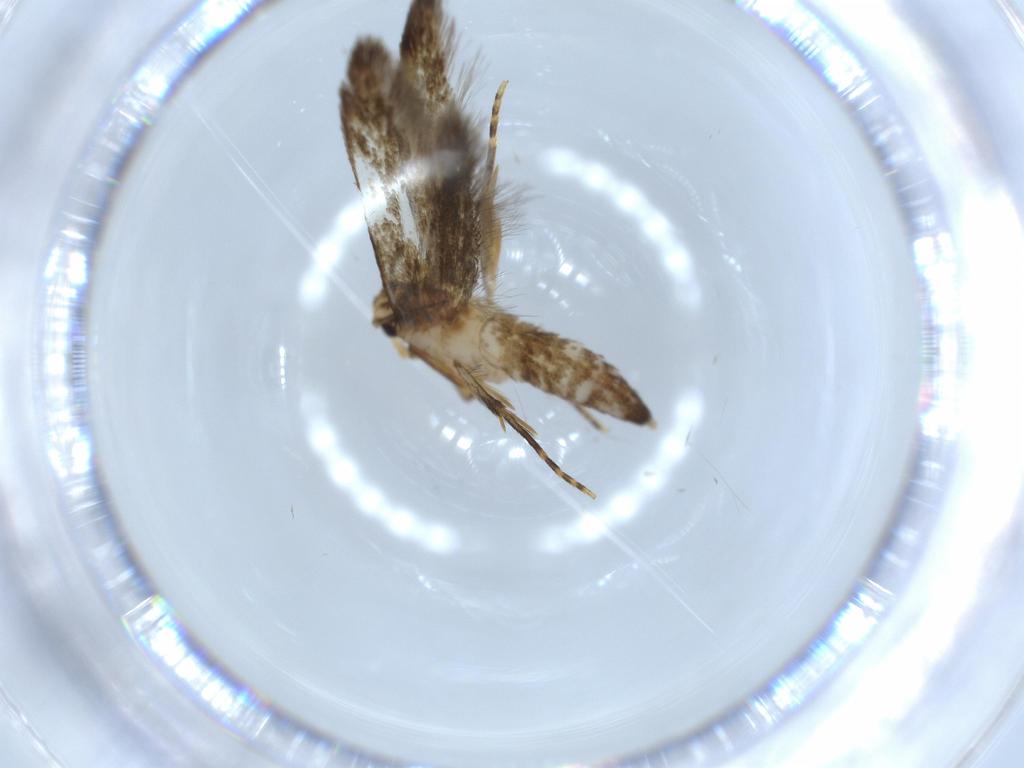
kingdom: Animalia
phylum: Arthropoda
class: Insecta
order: Lepidoptera
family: Tineidae
